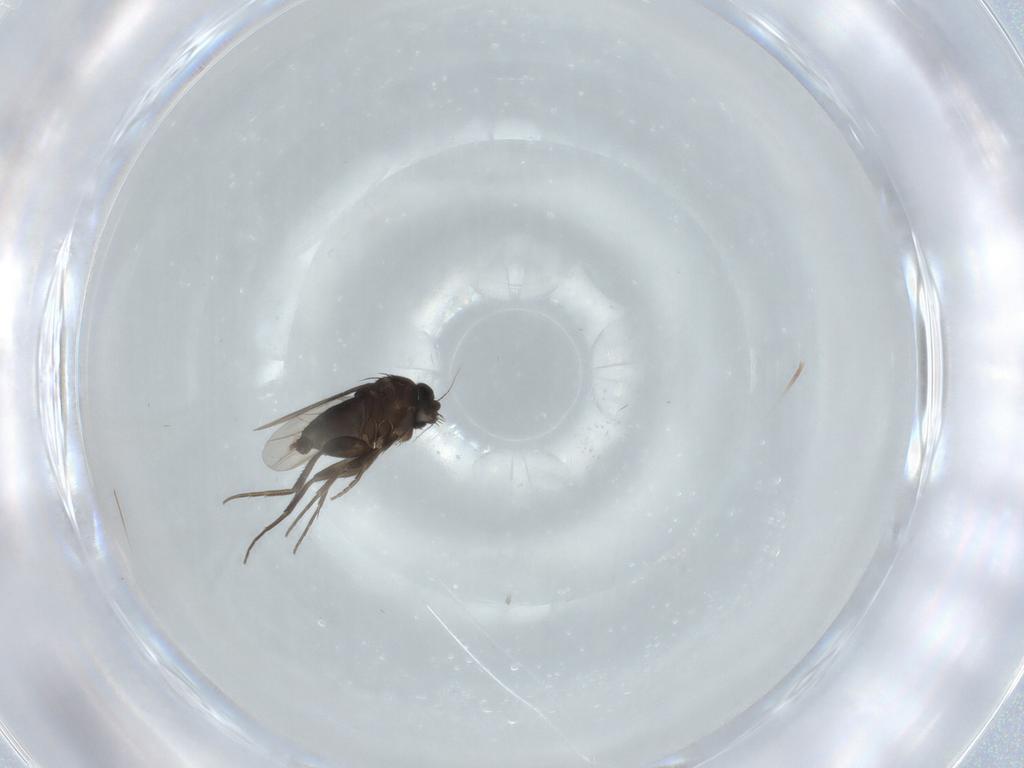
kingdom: Animalia
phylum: Arthropoda
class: Insecta
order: Diptera
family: Phoridae
